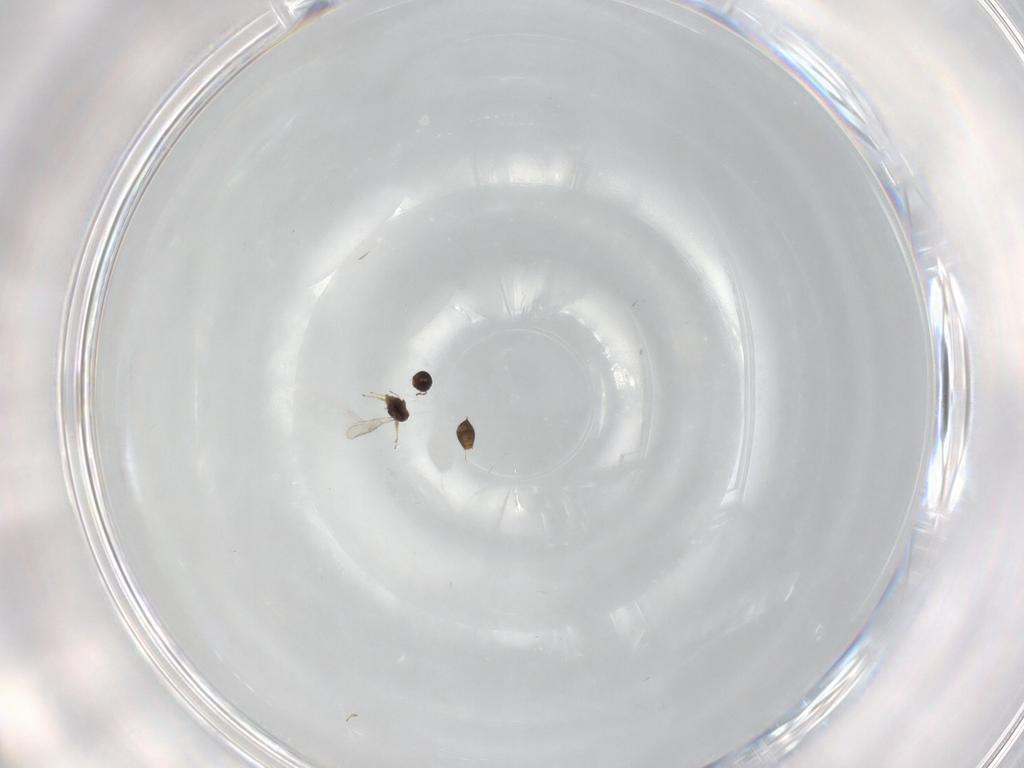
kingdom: Animalia
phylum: Arthropoda
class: Insecta
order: Hymenoptera
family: Scelionidae
